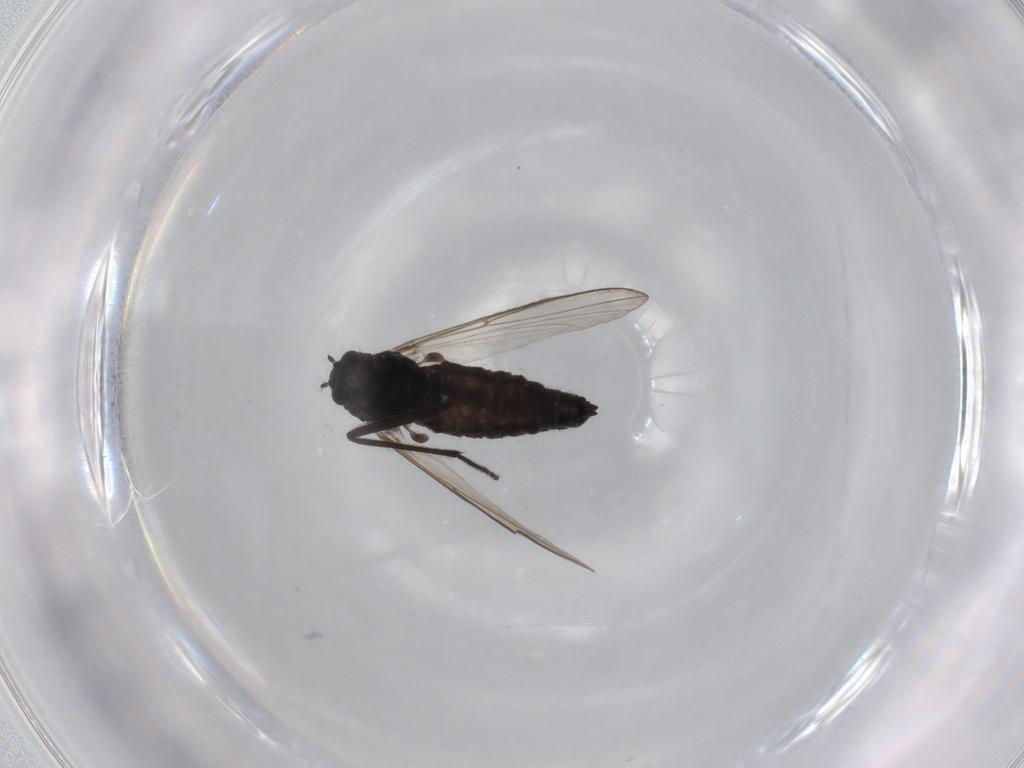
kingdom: Animalia
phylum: Arthropoda
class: Insecta
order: Diptera
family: Chironomidae
